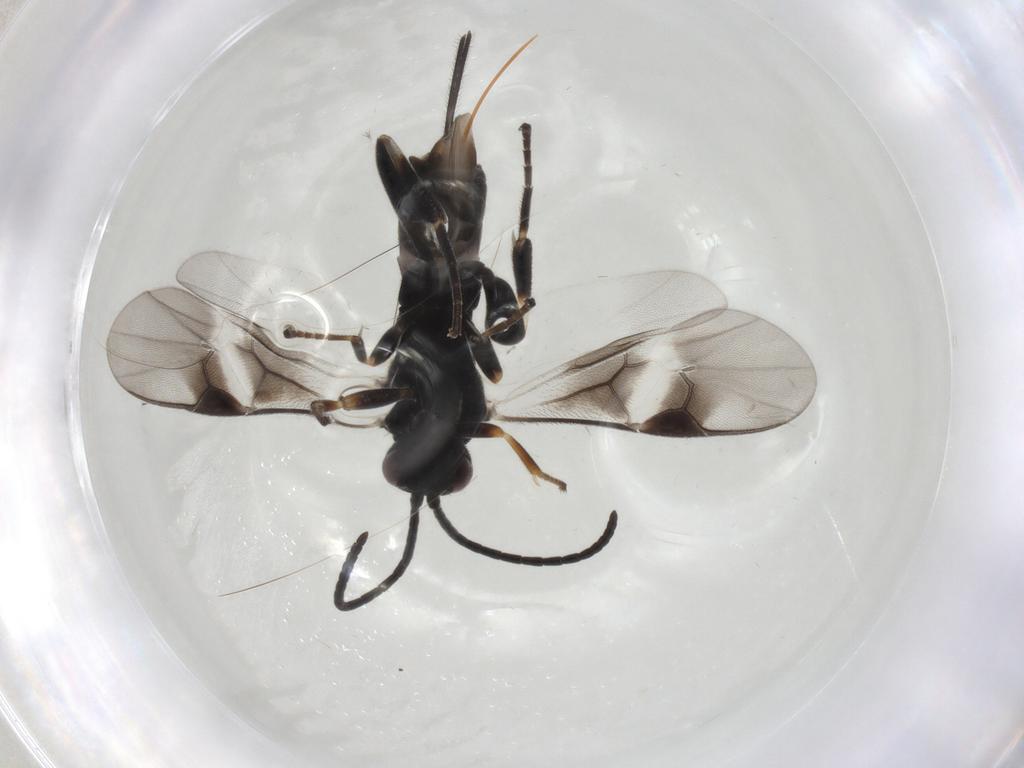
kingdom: Animalia
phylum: Arthropoda
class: Insecta
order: Hymenoptera
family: Braconidae
